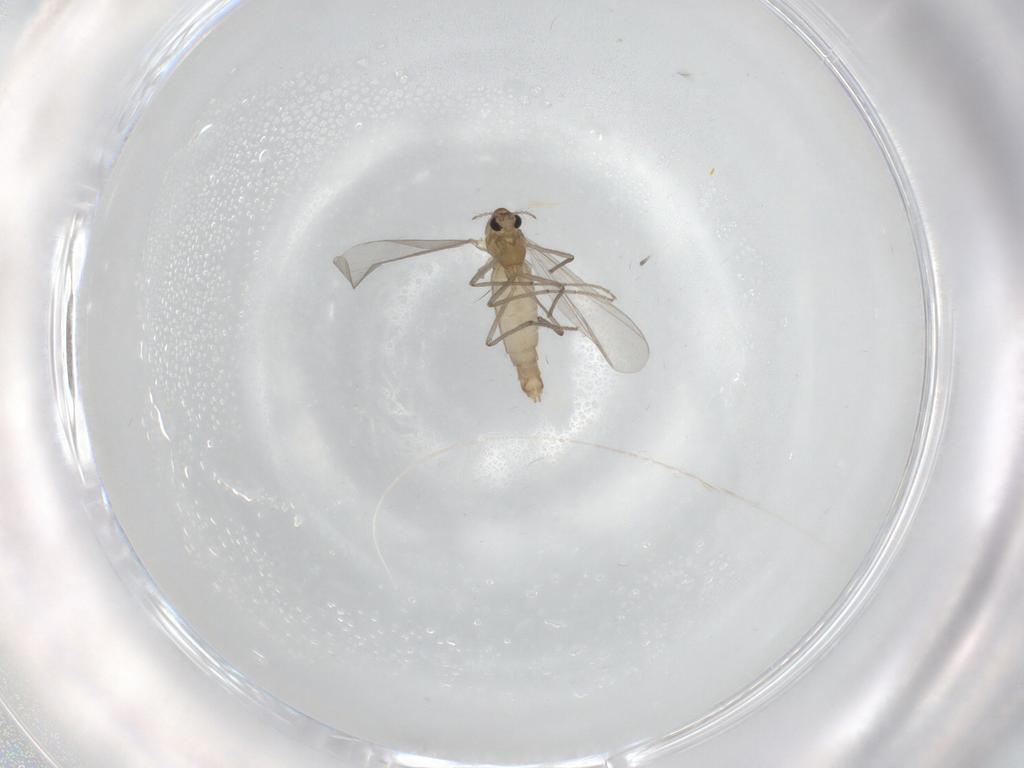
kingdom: Animalia
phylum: Arthropoda
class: Insecta
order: Diptera
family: Chironomidae
